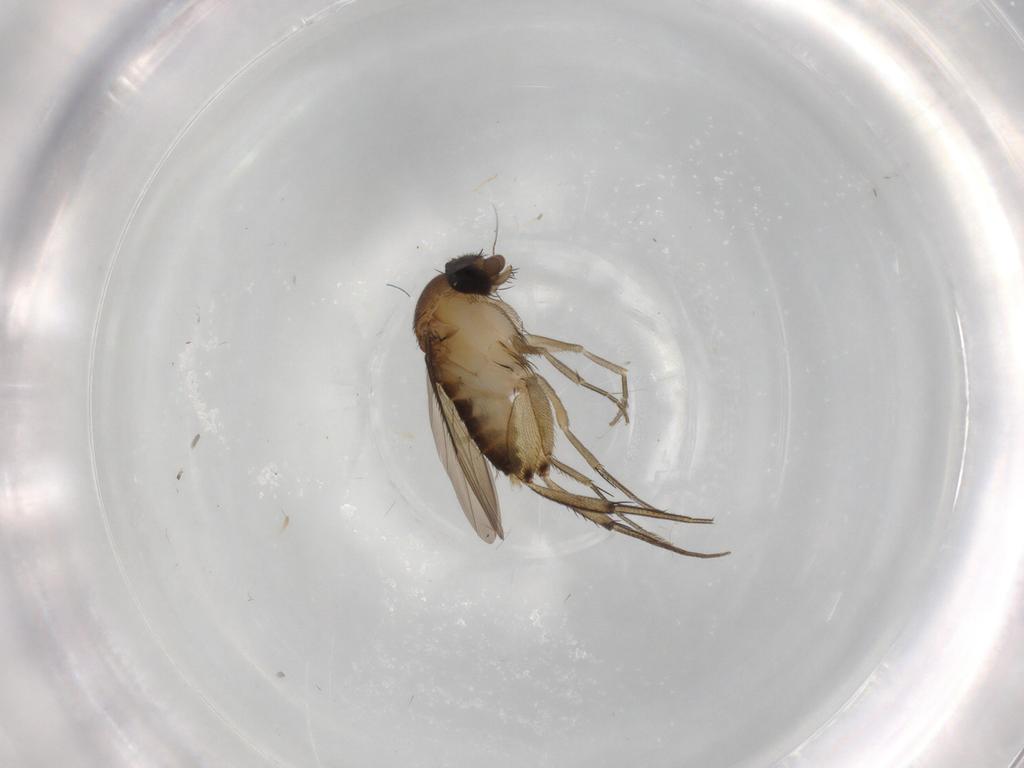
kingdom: Animalia
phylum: Arthropoda
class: Insecta
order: Diptera
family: Phoridae
